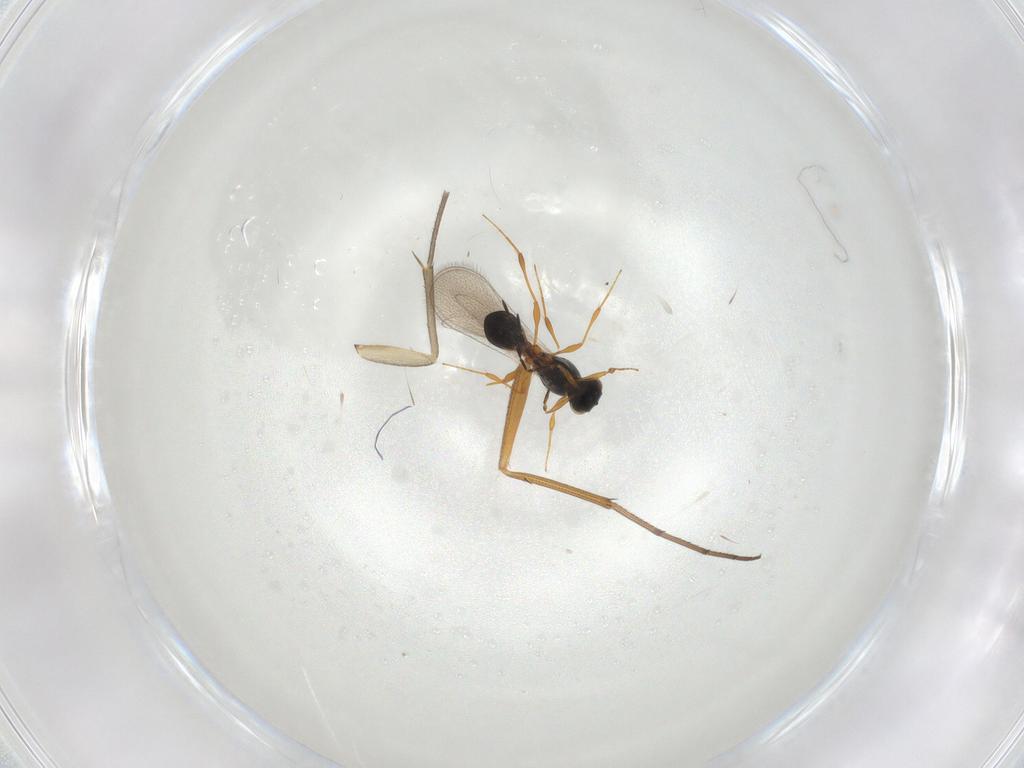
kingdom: Animalia
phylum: Arthropoda
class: Insecta
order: Hymenoptera
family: Platygastridae
